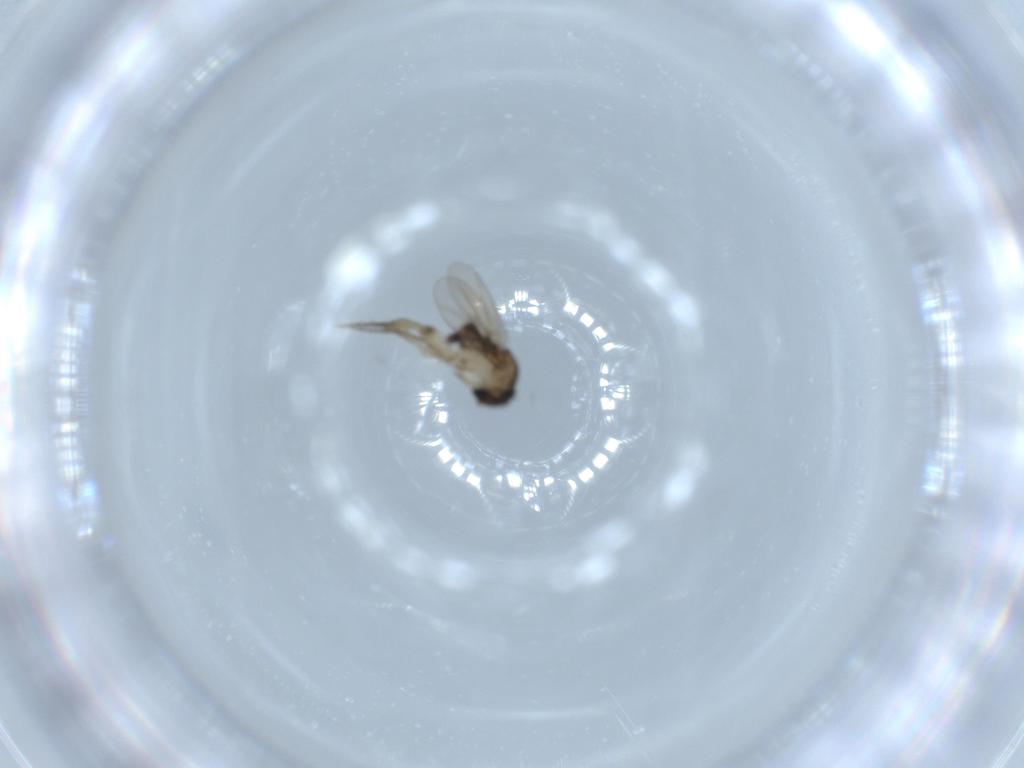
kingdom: Animalia
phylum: Arthropoda
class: Insecta
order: Diptera
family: Phoridae
